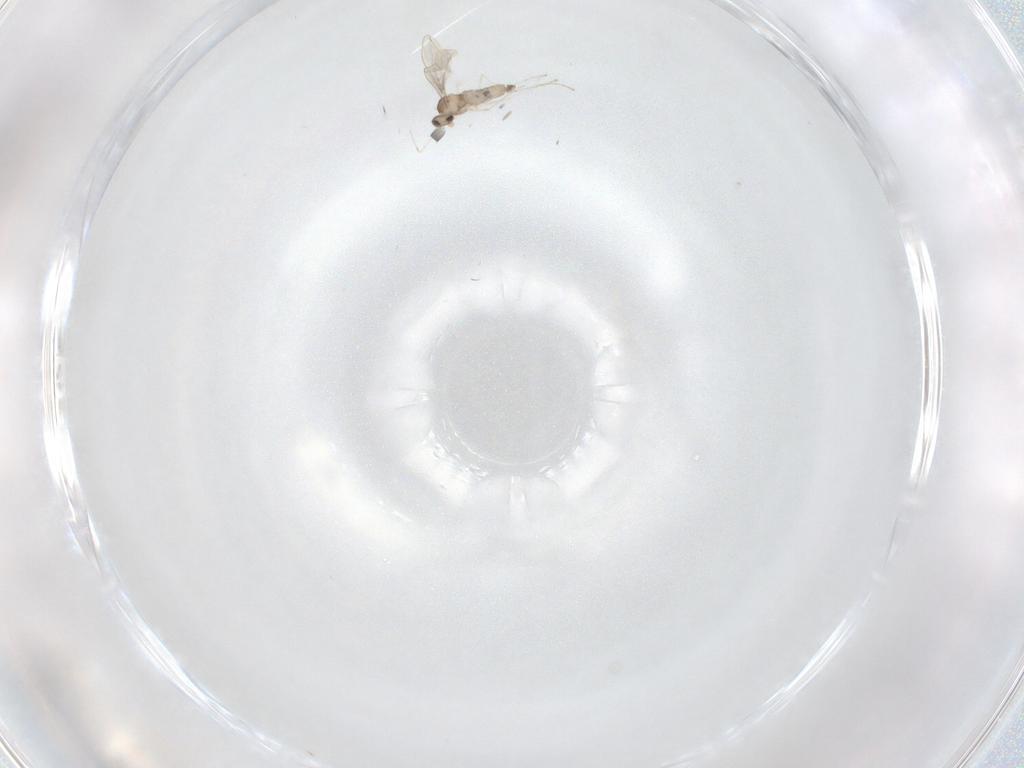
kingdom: Animalia
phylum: Arthropoda
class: Insecta
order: Diptera
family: Cecidomyiidae
